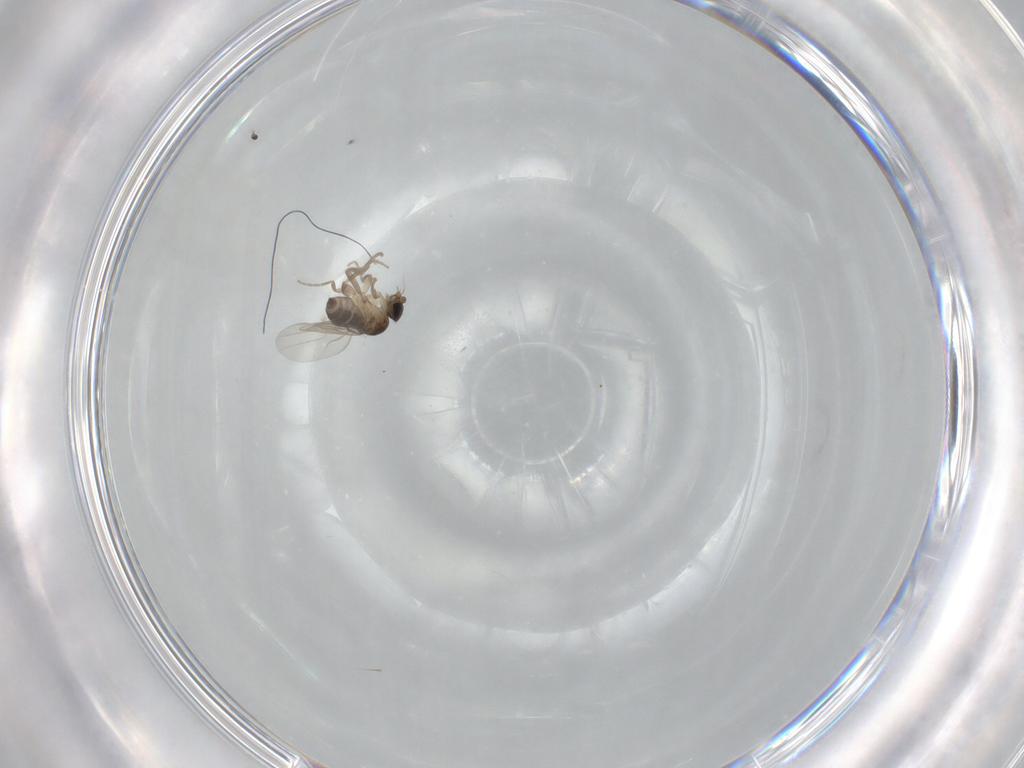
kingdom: Animalia
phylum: Arthropoda
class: Insecta
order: Diptera
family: Phoridae
